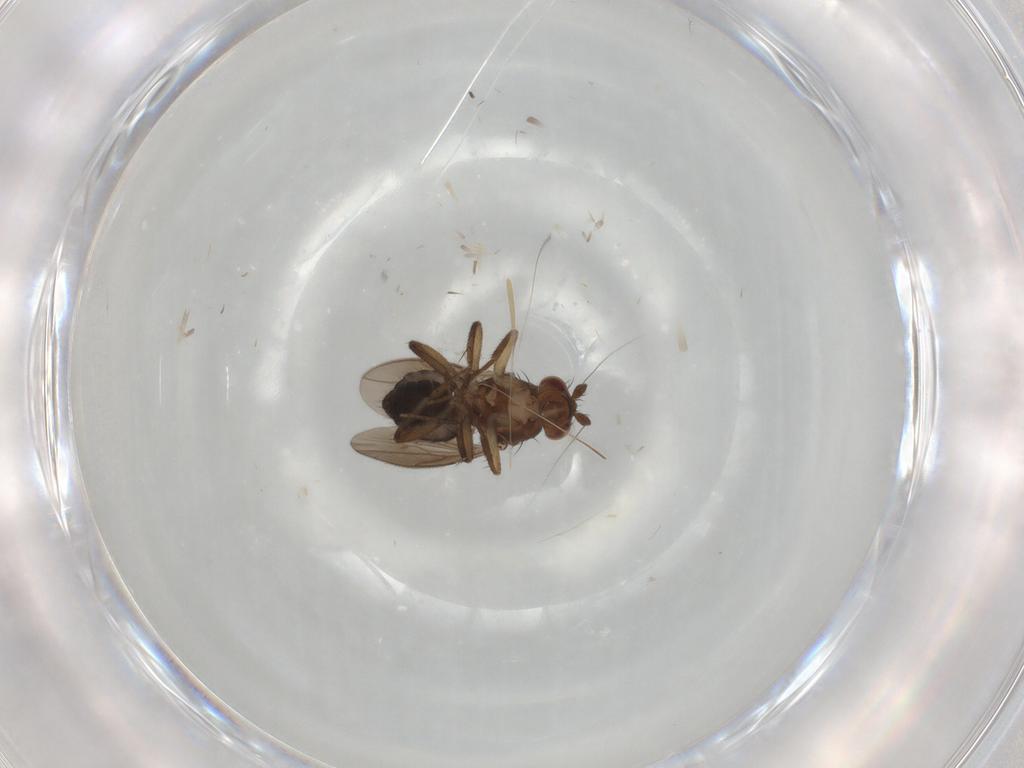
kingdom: Animalia
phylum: Arthropoda
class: Insecta
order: Diptera
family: Sphaeroceridae
